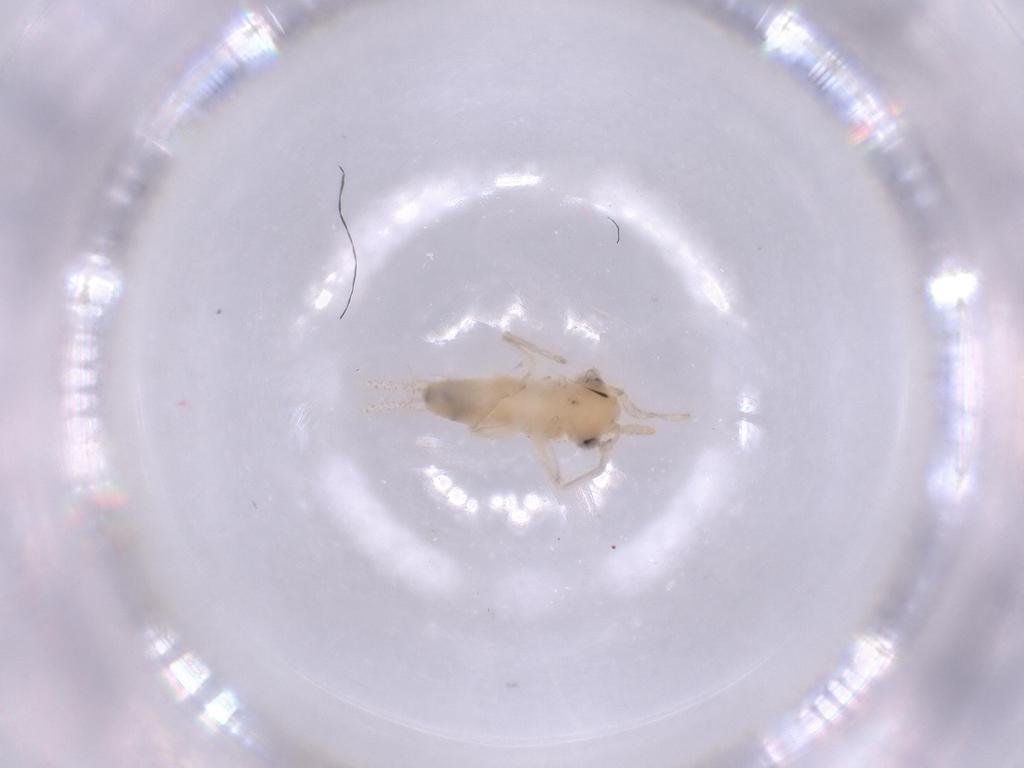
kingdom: Animalia
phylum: Arthropoda
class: Insecta
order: Orthoptera
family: Trigonidiidae
